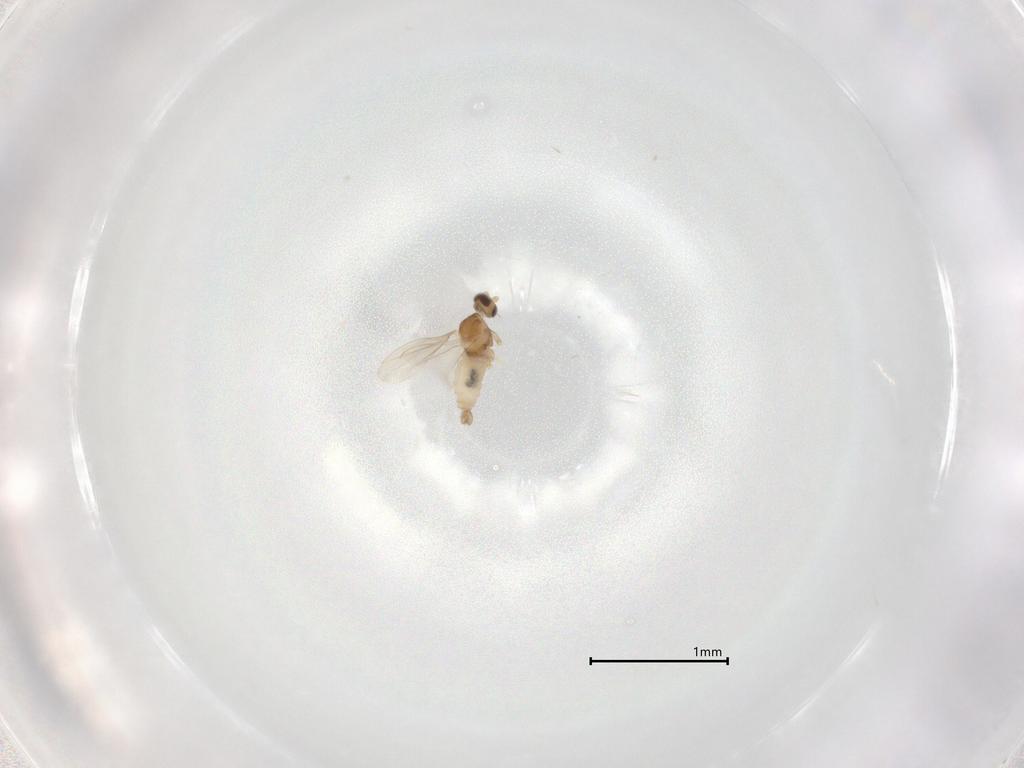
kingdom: Animalia
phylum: Arthropoda
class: Insecta
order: Diptera
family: Cecidomyiidae
